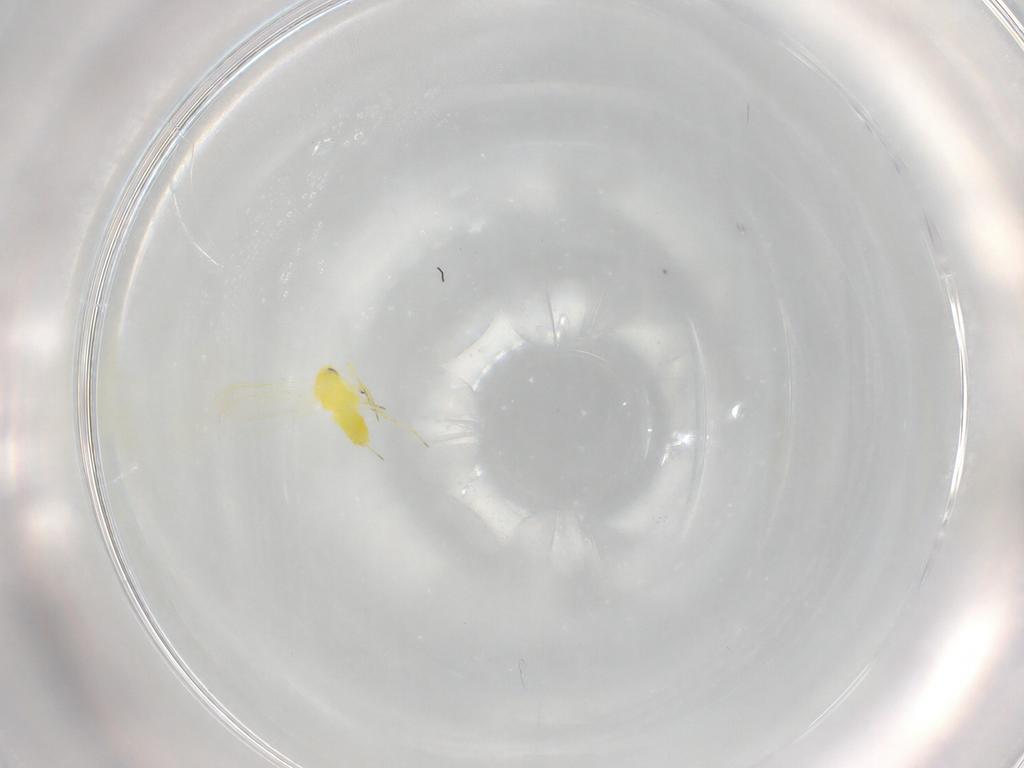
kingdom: Animalia
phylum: Arthropoda
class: Insecta
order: Hemiptera
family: Aleyrodidae
